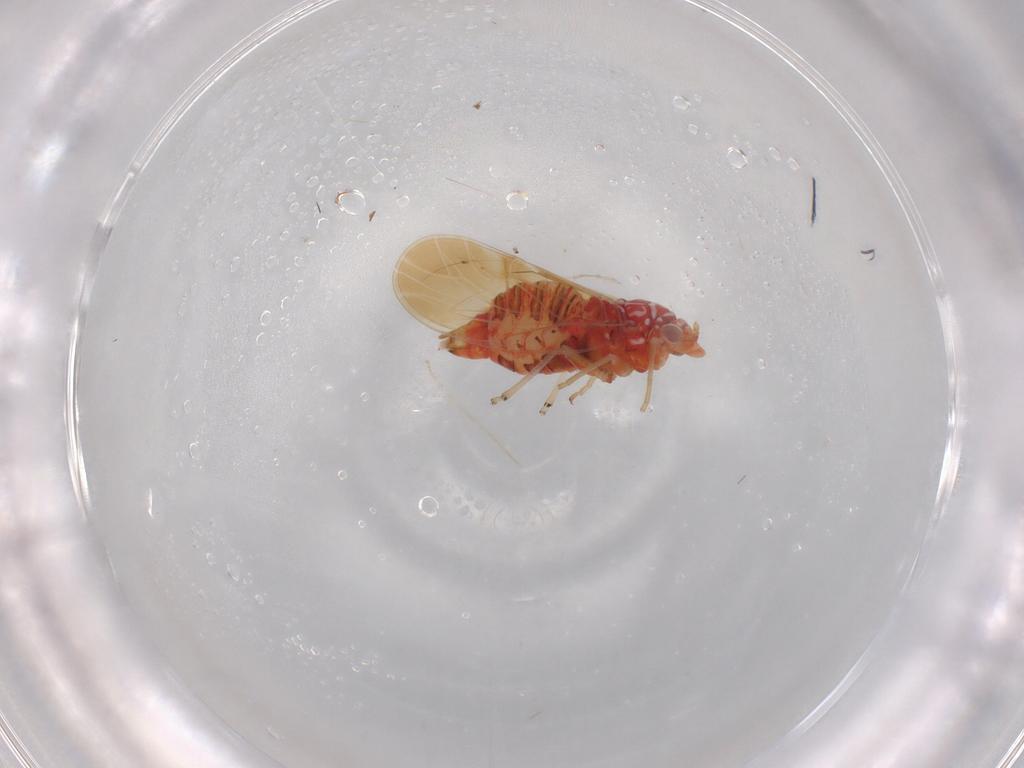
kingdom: Animalia
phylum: Arthropoda
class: Insecta
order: Hemiptera
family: Psyllidae
